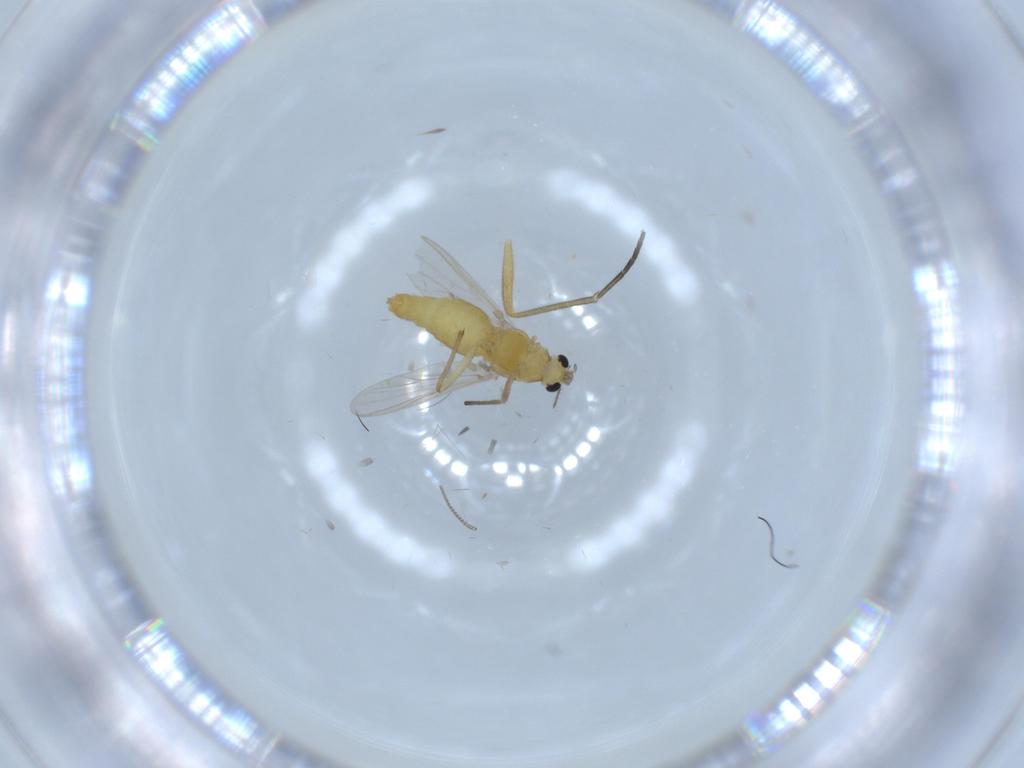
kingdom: Animalia
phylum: Arthropoda
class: Insecta
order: Diptera
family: Chironomidae
